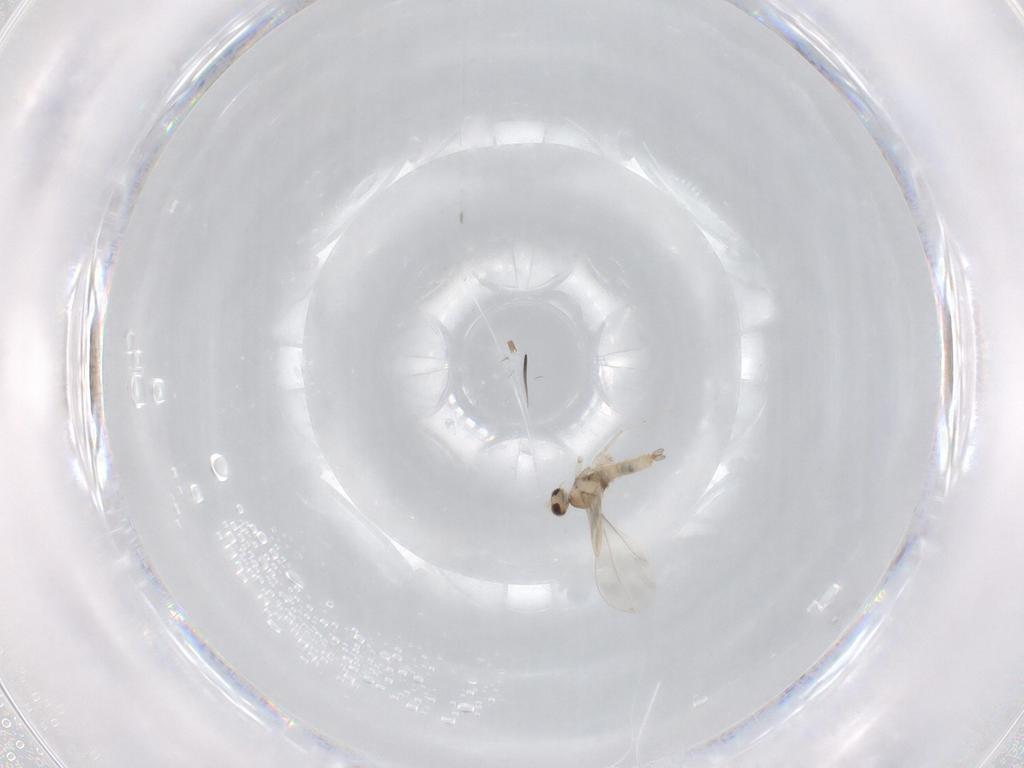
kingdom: Animalia
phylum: Arthropoda
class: Insecta
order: Diptera
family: Cecidomyiidae
